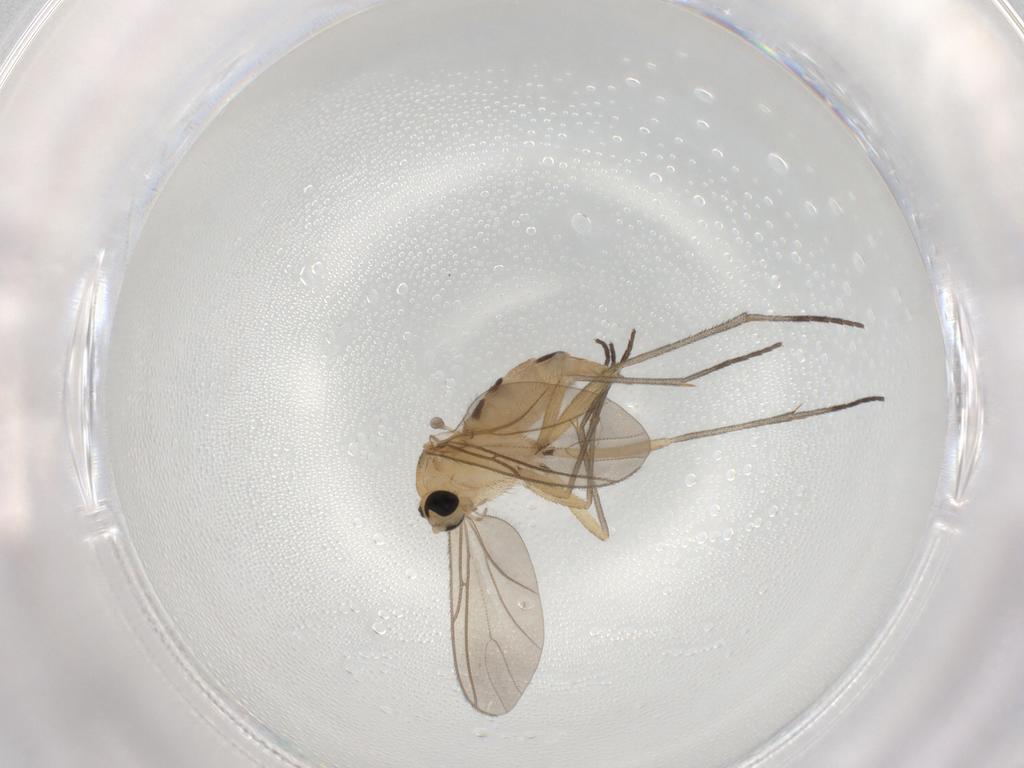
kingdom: Animalia
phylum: Arthropoda
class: Insecta
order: Diptera
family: Sciaridae
